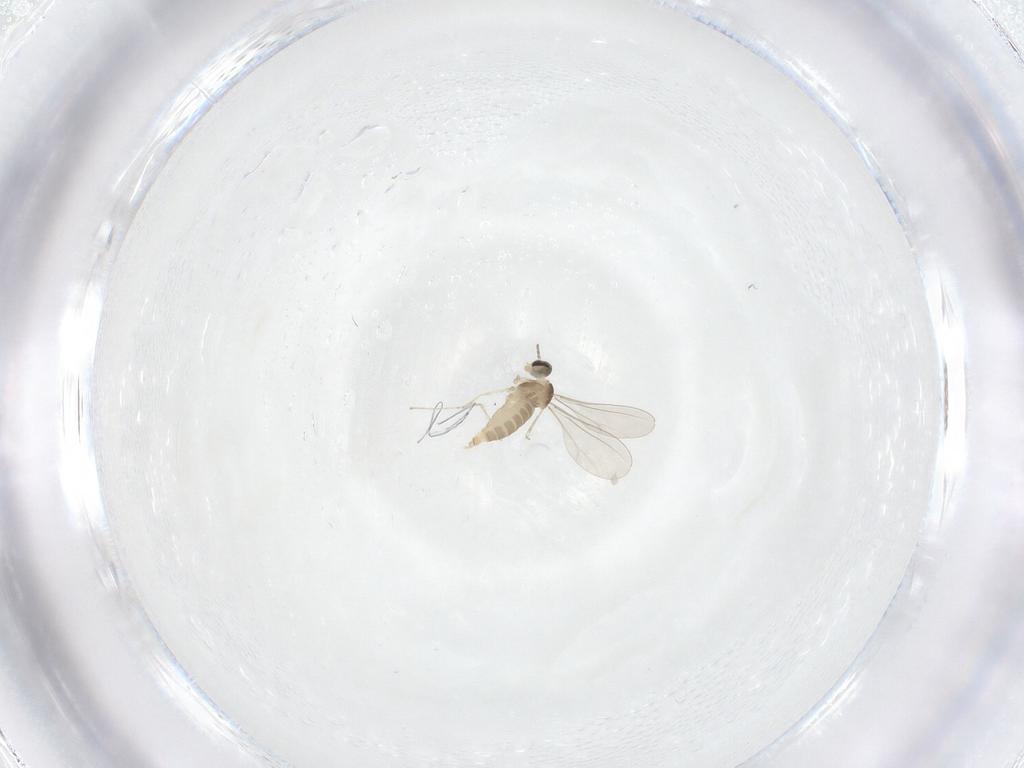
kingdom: Animalia
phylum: Arthropoda
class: Insecta
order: Diptera
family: Cecidomyiidae
